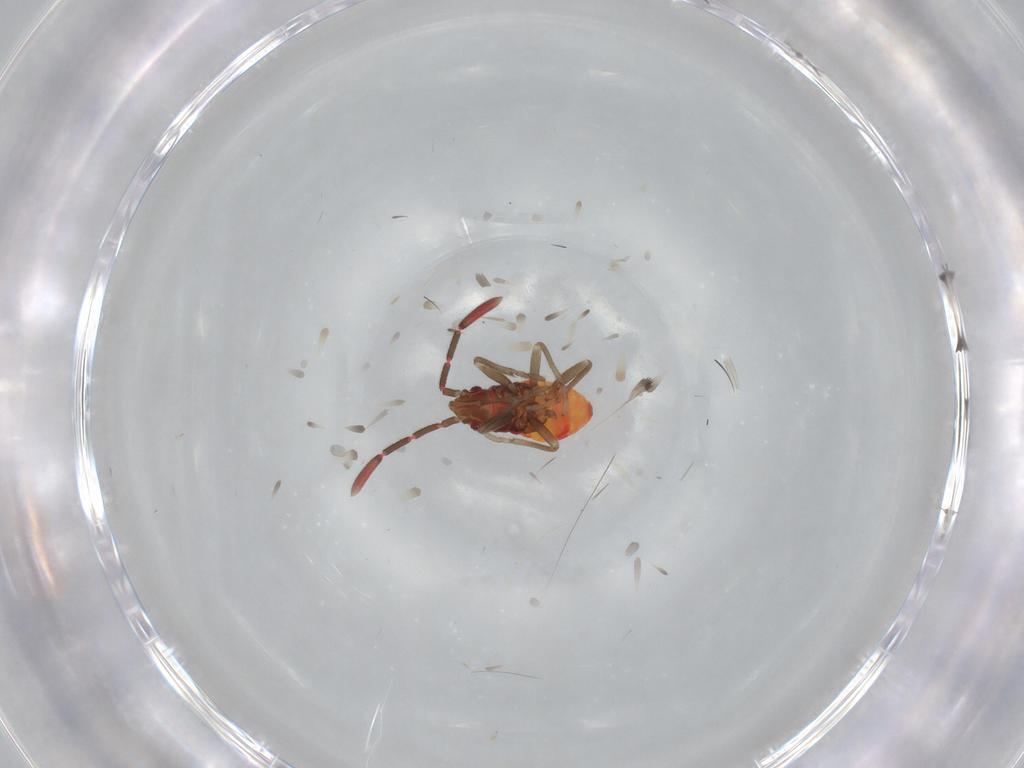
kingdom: Animalia
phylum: Arthropoda
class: Insecta
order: Hemiptera
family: Rhyparochromidae
